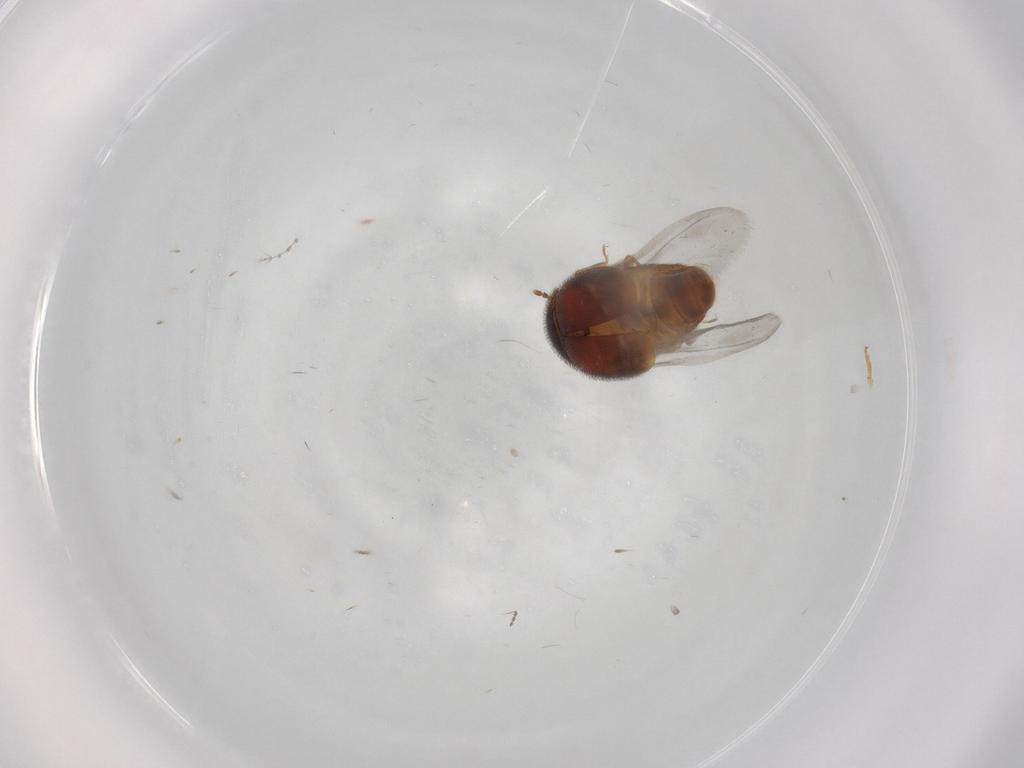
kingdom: Animalia
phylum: Arthropoda
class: Insecta
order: Coleoptera
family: Corylophidae
